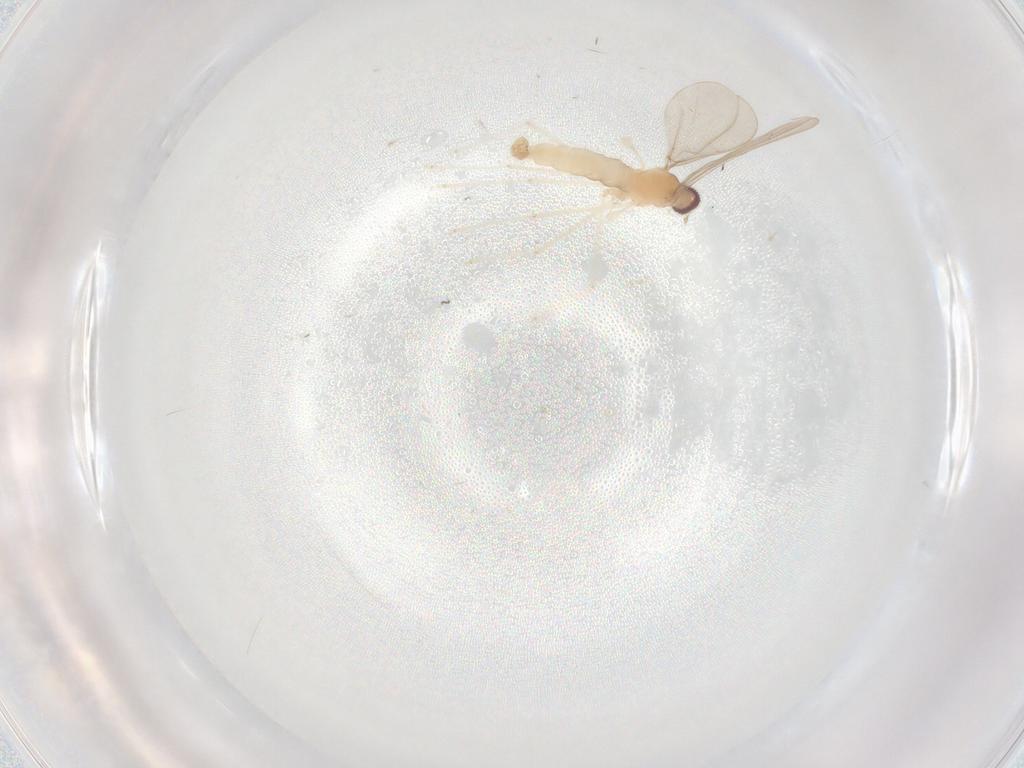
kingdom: Animalia
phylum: Arthropoda
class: Insecta
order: Diptera
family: Cecidomyiidae
